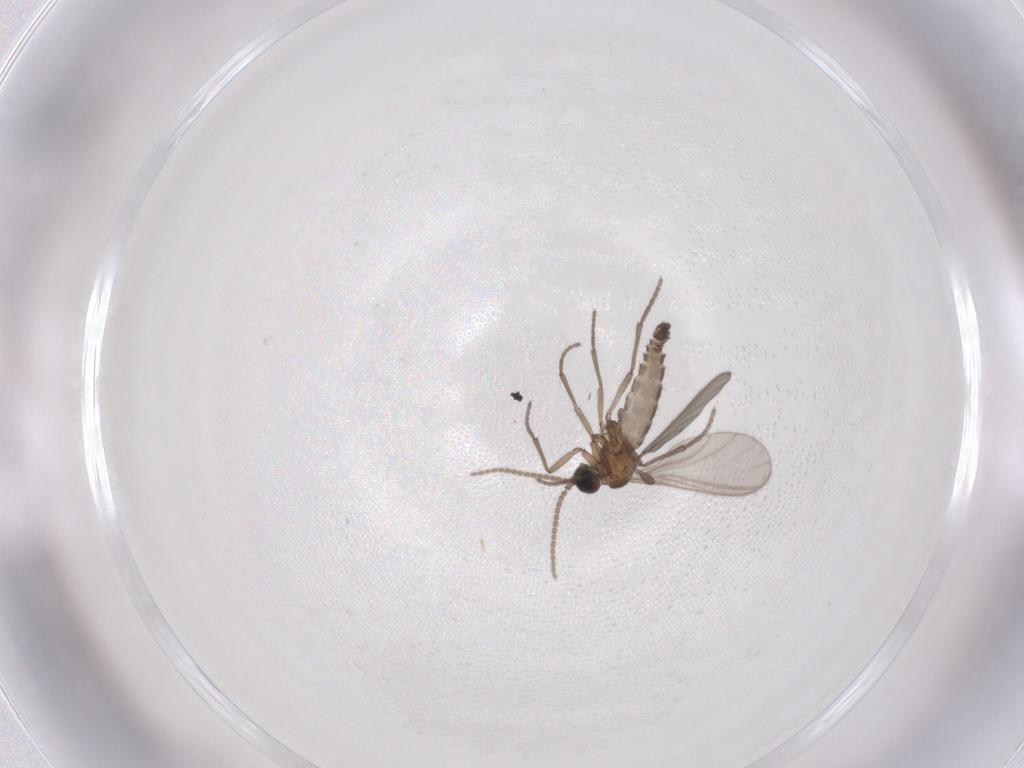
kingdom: Animalia
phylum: Arthropoda
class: Insecta
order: Diptera
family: Sciaridae
